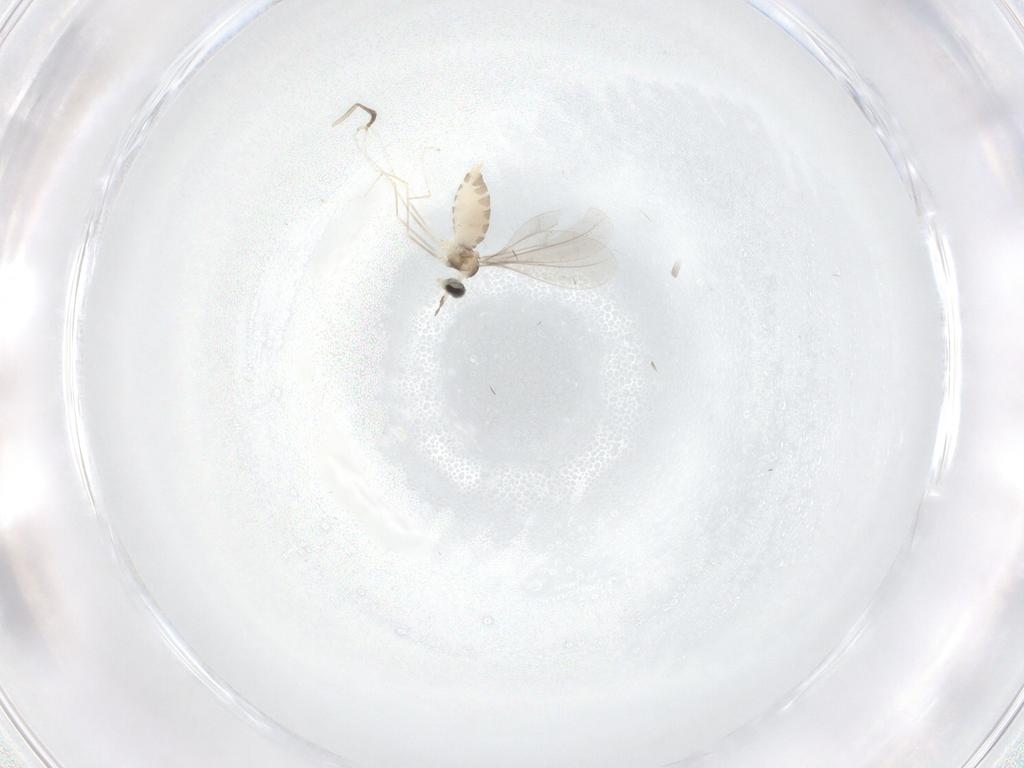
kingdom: Animalia
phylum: Arthropoda
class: Insecta
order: Diptera
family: Cecidomyiidae
